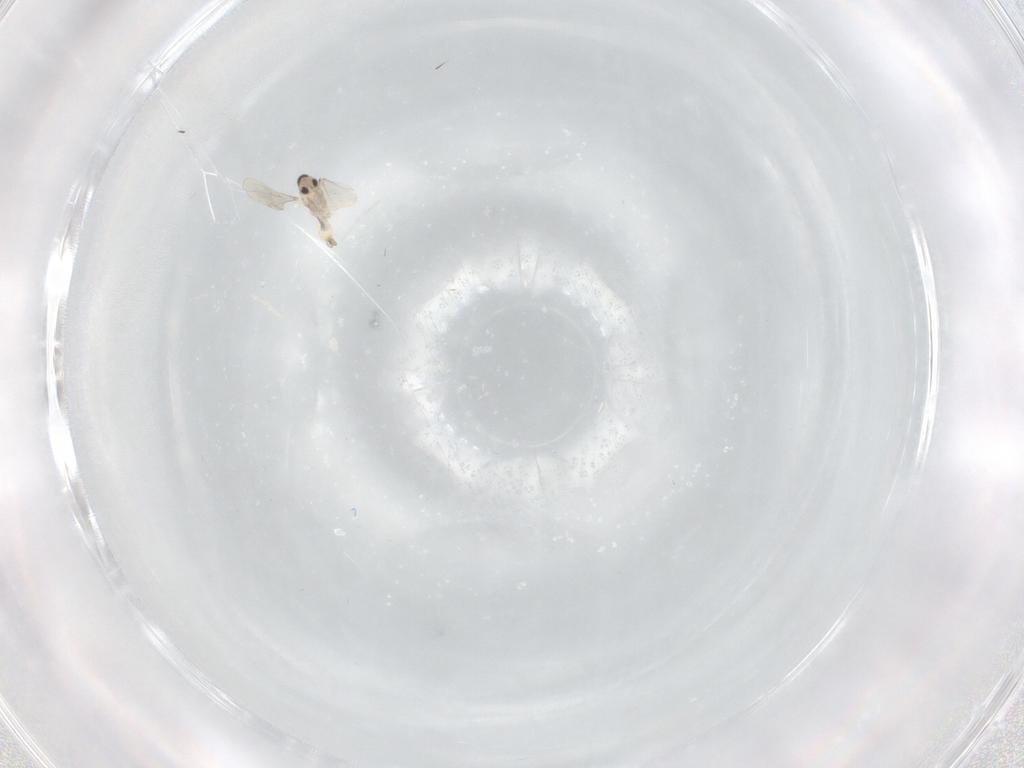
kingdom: Animalia
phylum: Arthropoda
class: Insecta
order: Diptera
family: Cecidomyiidae
